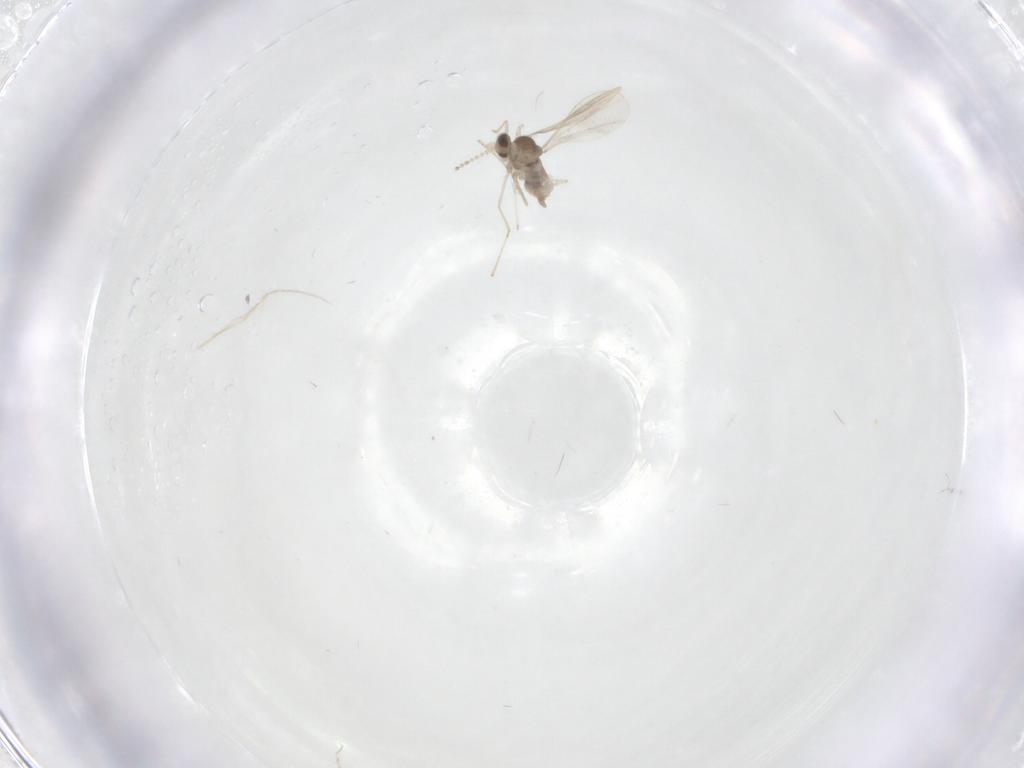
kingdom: Animalia
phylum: Arthropoda
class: Insecta
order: Diptera
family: Cecidomyiidae
